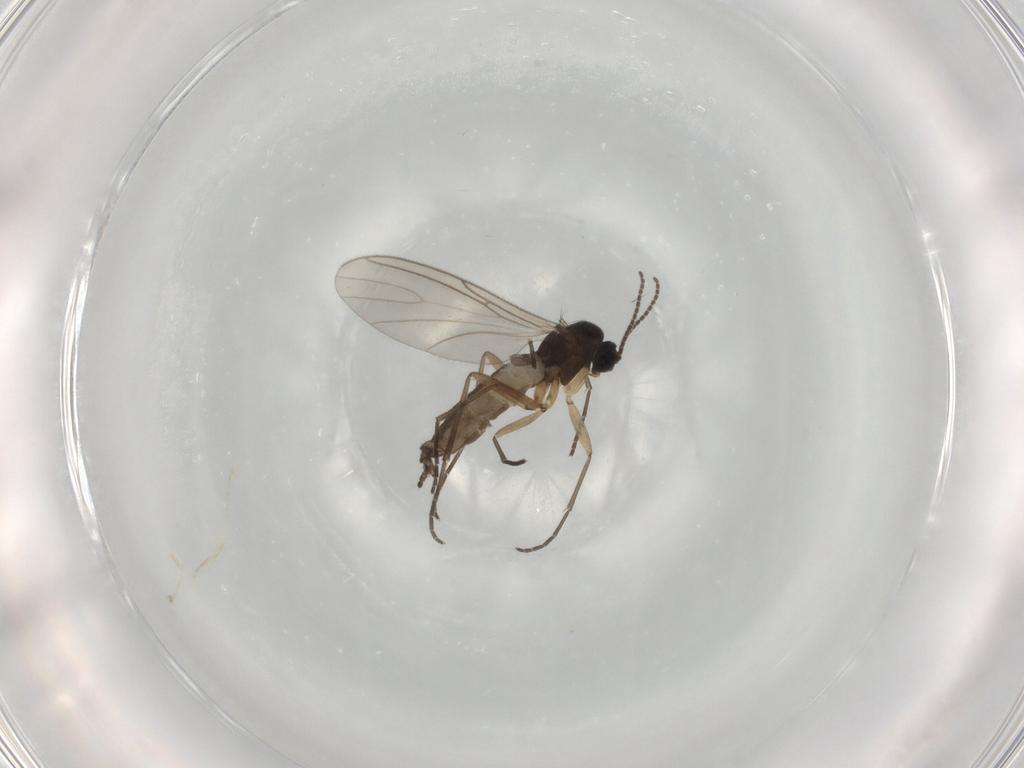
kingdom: Animalia
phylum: Arthropoda
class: Insecta
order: Diptera
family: Sciaridae
